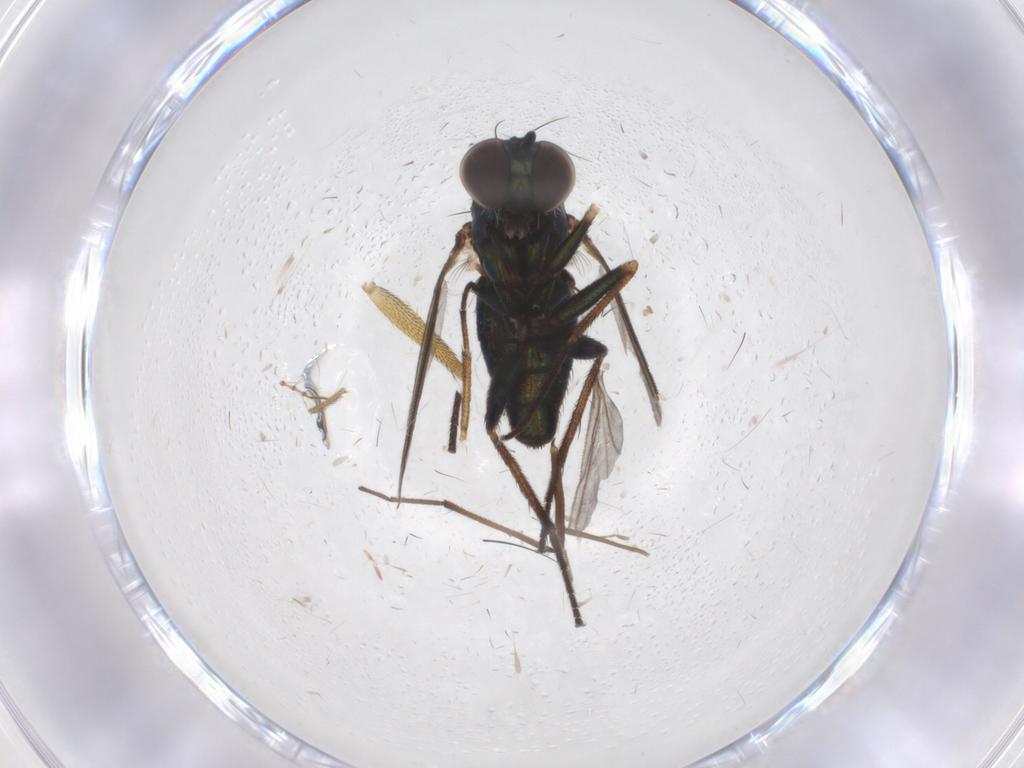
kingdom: Animalia
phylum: Arthropoda
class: Insecta
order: Diptera
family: Dolichopodidae
